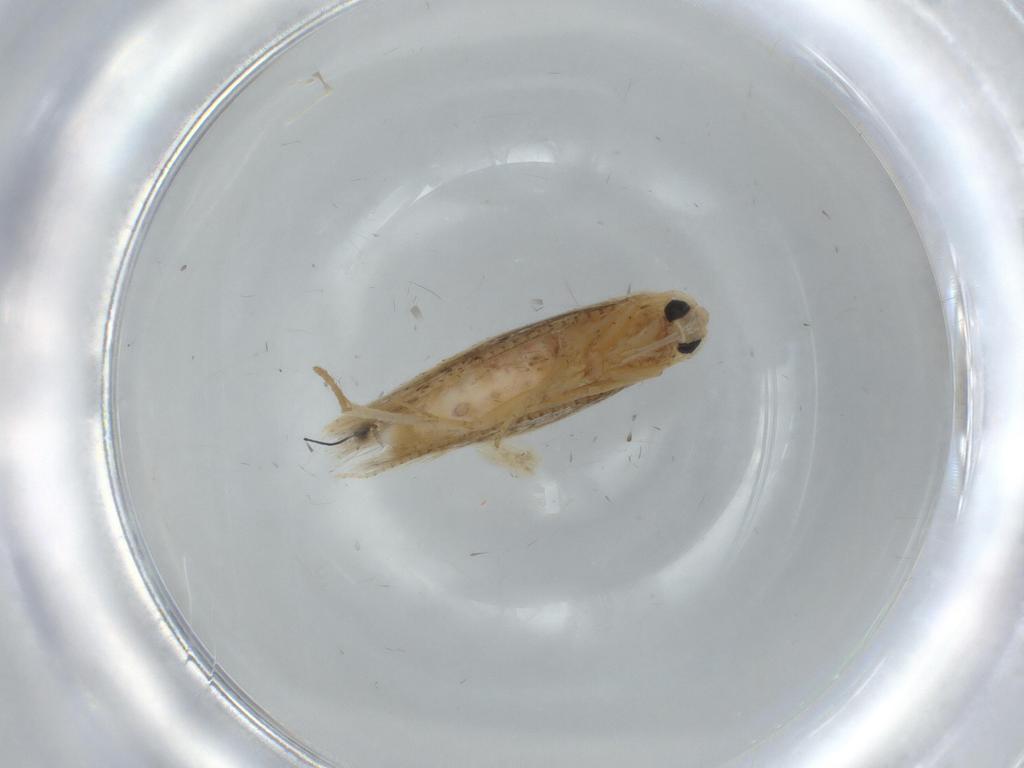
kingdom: Animalia
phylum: Arthropoda
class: Insecta
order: Lepidoptera
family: Bedelliidae
